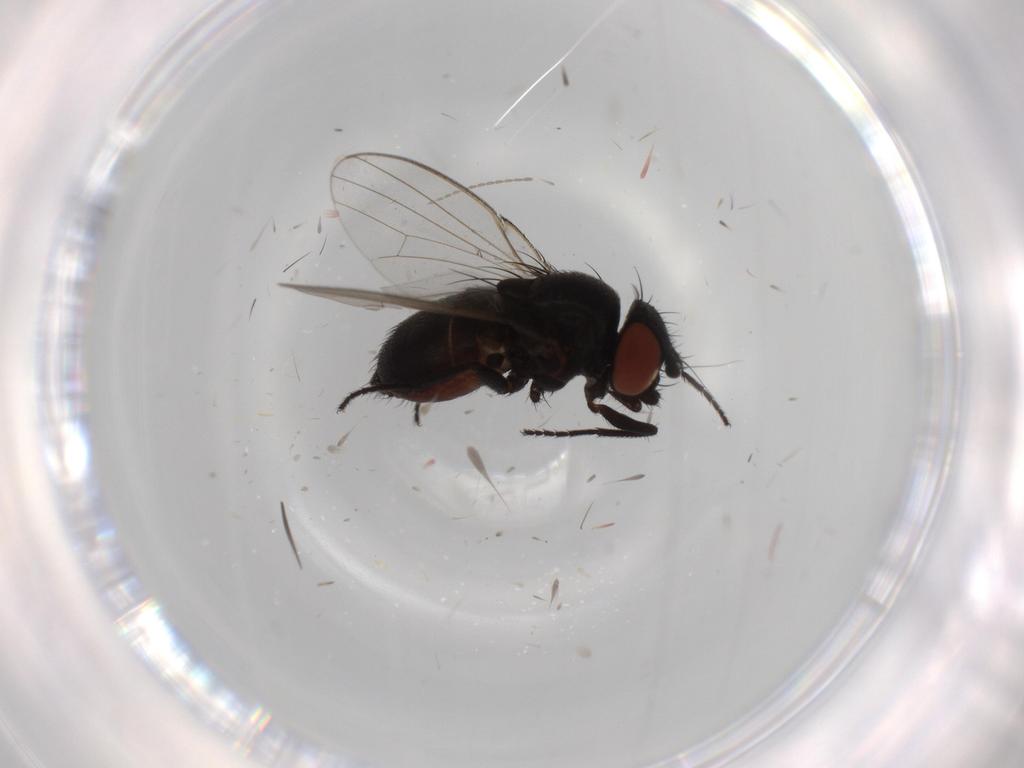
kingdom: Animalia
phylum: Arthropoda
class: Insecta
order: Diptera
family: Milichiidae
